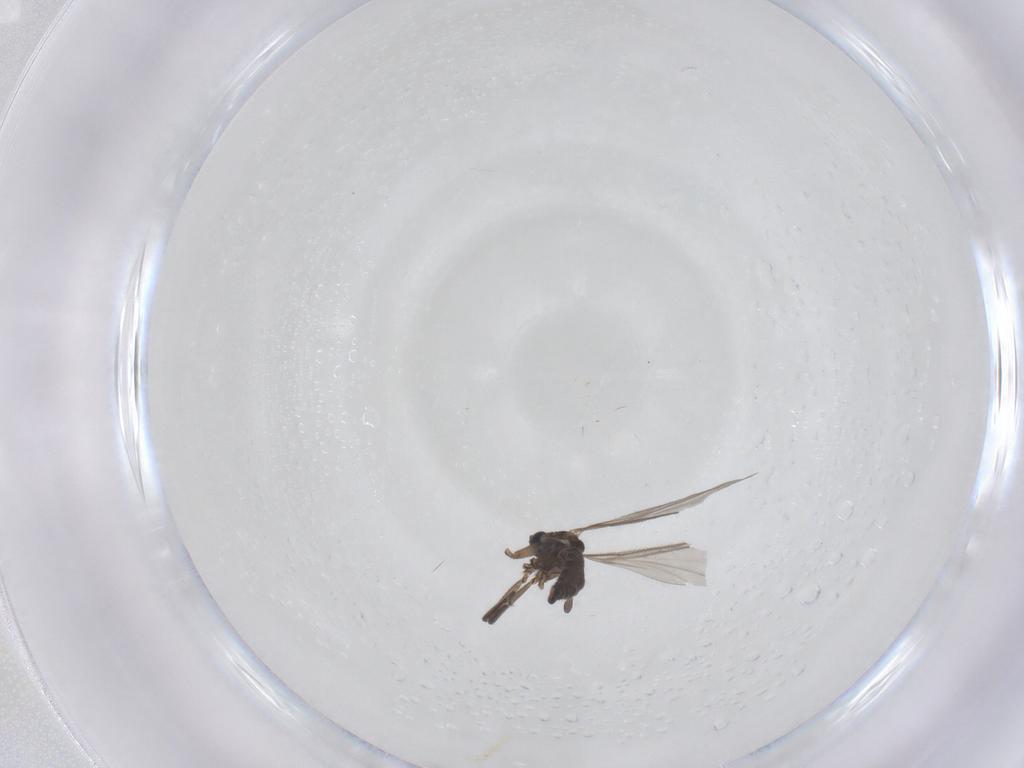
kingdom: Animalia
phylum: Arthropoda
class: Insecta
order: Diptera
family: Sciaridae
